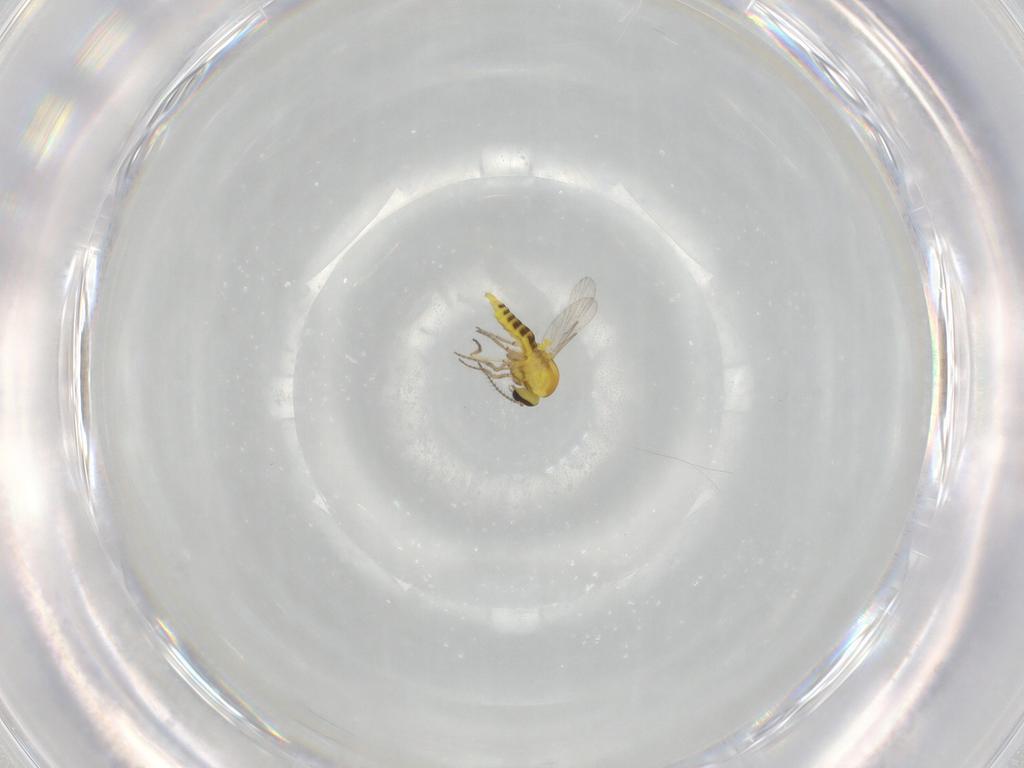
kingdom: Animalia
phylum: Arthropoda
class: Insecta
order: Diptera
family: Ceratopogonidae
